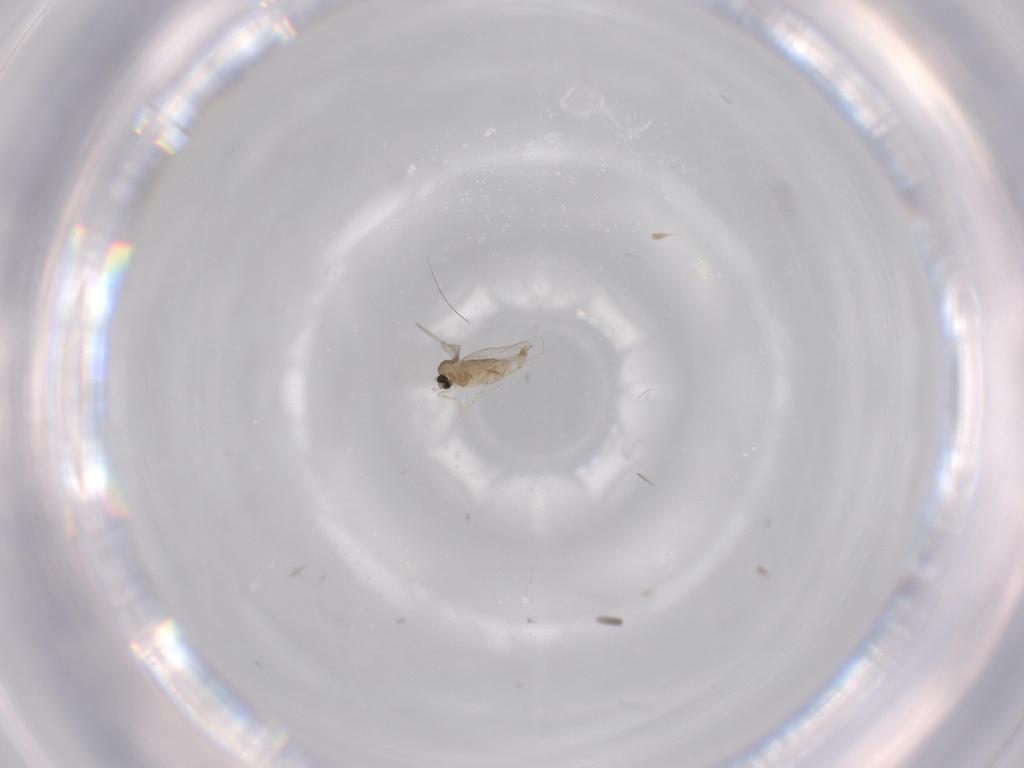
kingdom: Animalia
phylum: Arthropoda
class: Insecta
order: Diptera
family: Cecidomyiidae
